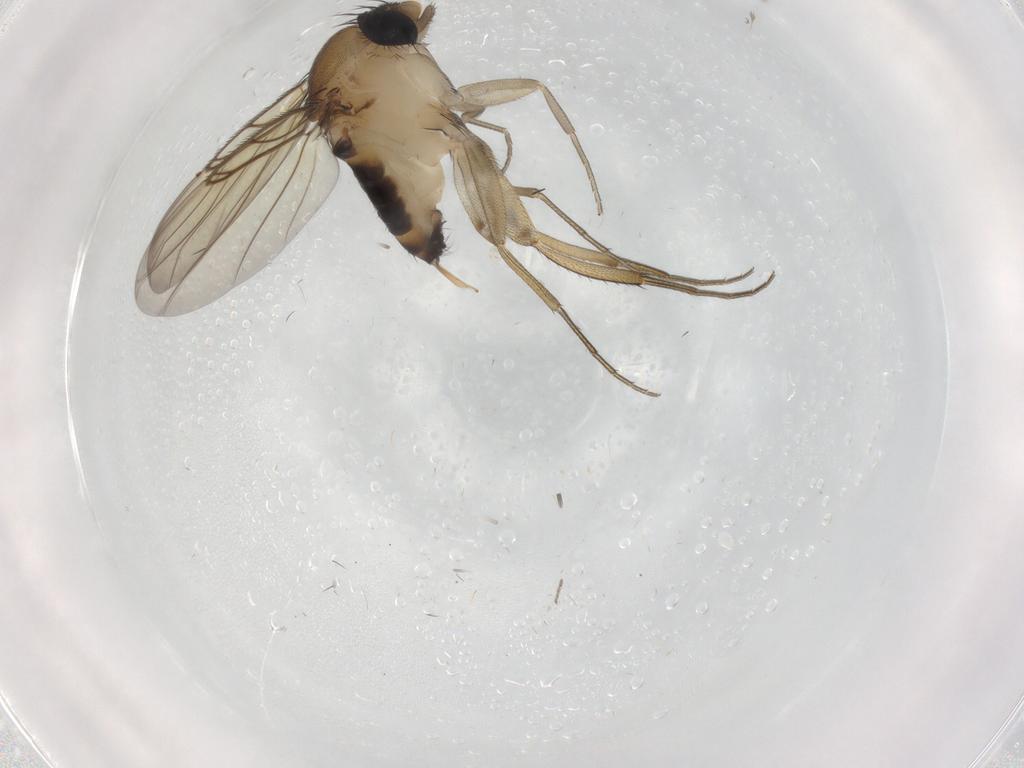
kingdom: Animalia
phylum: Arthropoda
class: Insecta
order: Diptera
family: Phoridae
